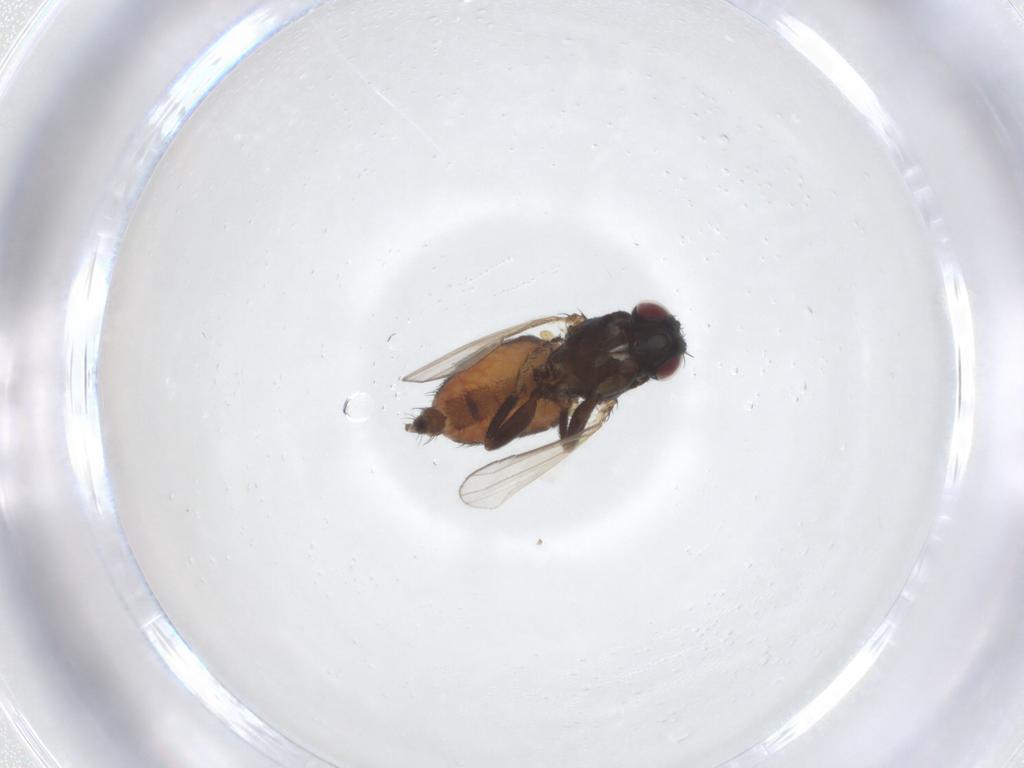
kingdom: Animalia
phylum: Arthropoda
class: Insecta
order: Diptera
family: Milichiidae
